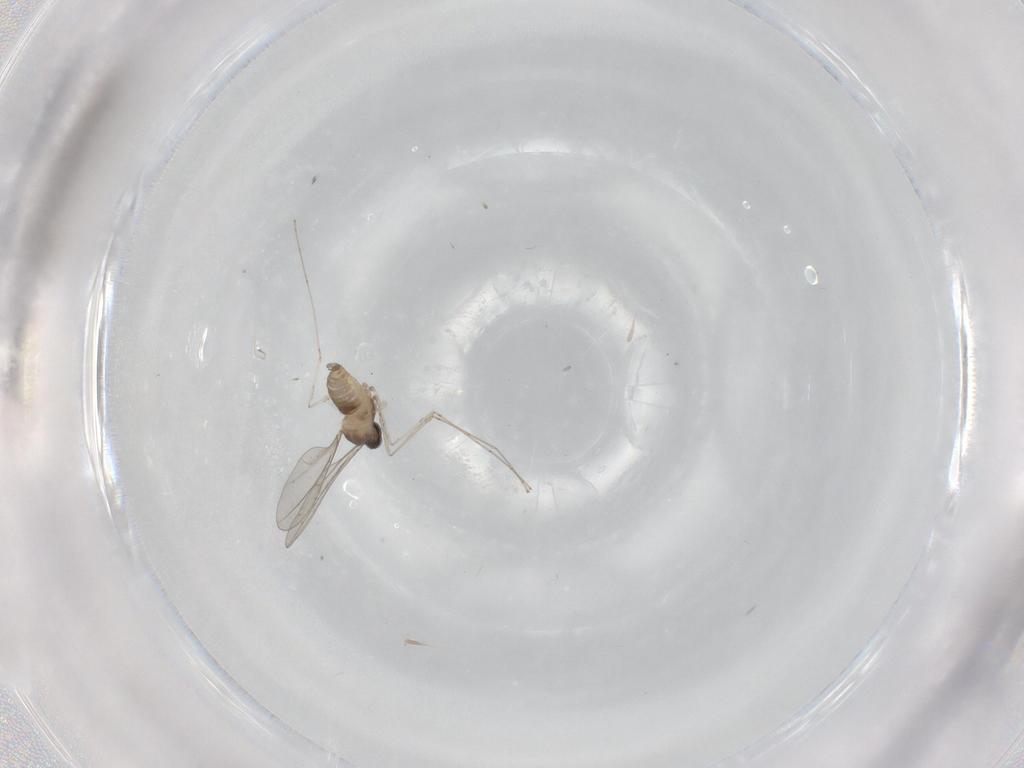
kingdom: Animalia
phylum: Arthropoda
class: Insecta
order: Diptera
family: Cecidomyiidae
